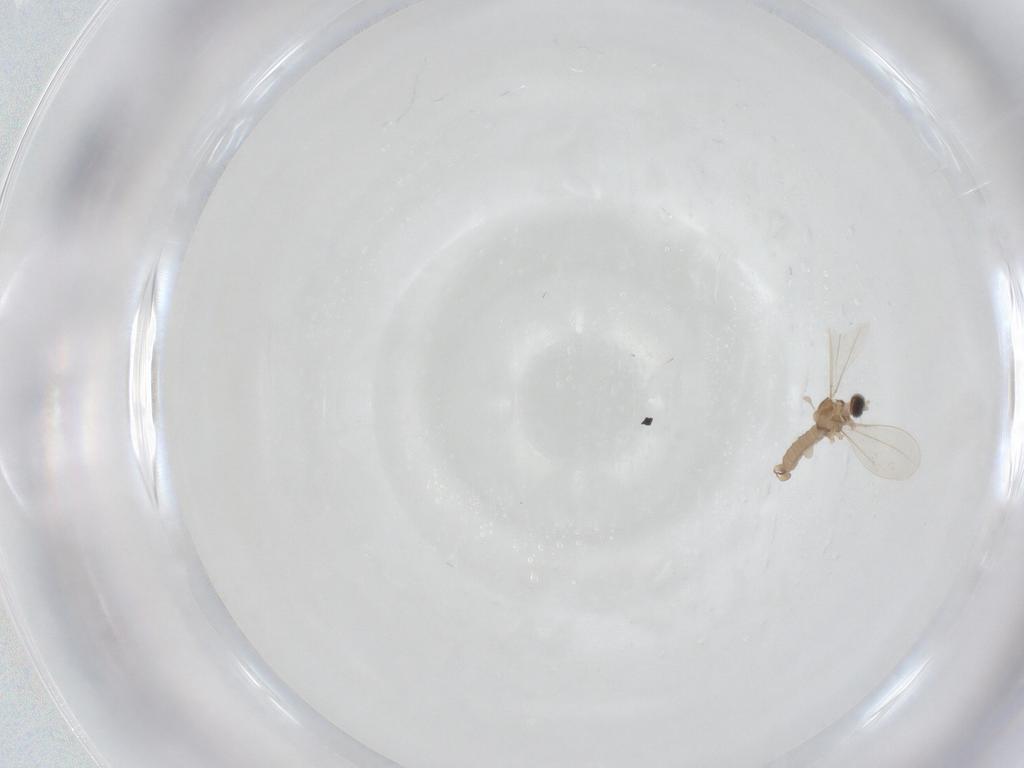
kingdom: Animalia
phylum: Arthropoda
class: Insecta
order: Diptera
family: Cecidomyiidae
